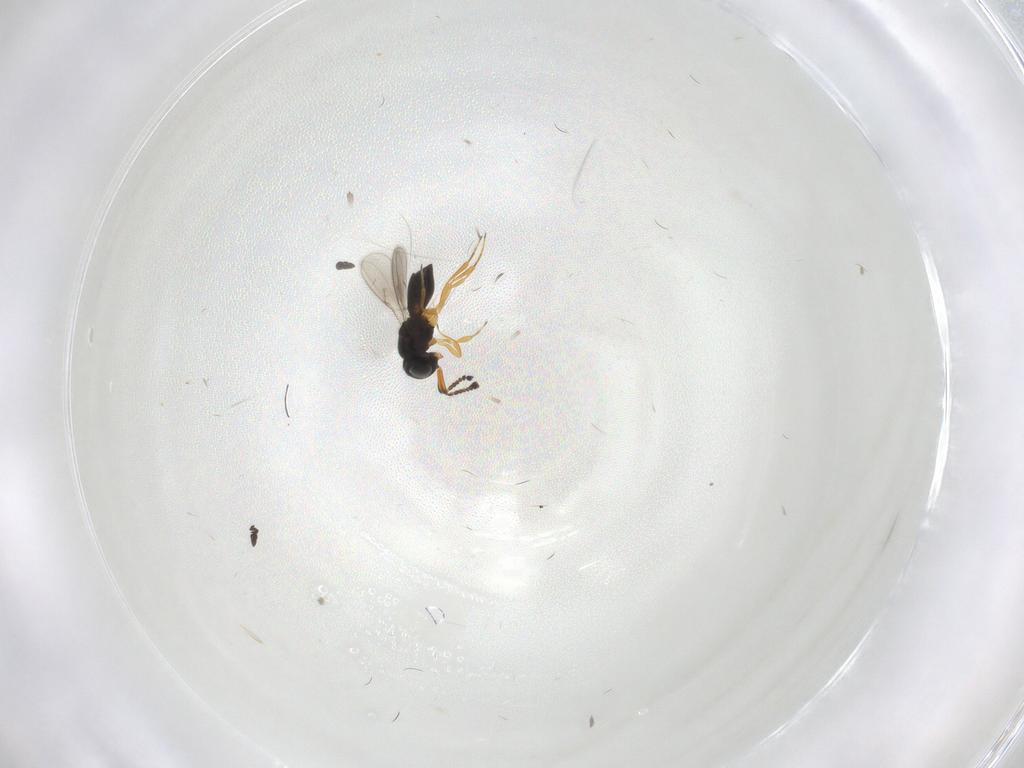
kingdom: Animalia
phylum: Arthropoda
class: Insecta
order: Hymenoptera
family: Scelionidae
